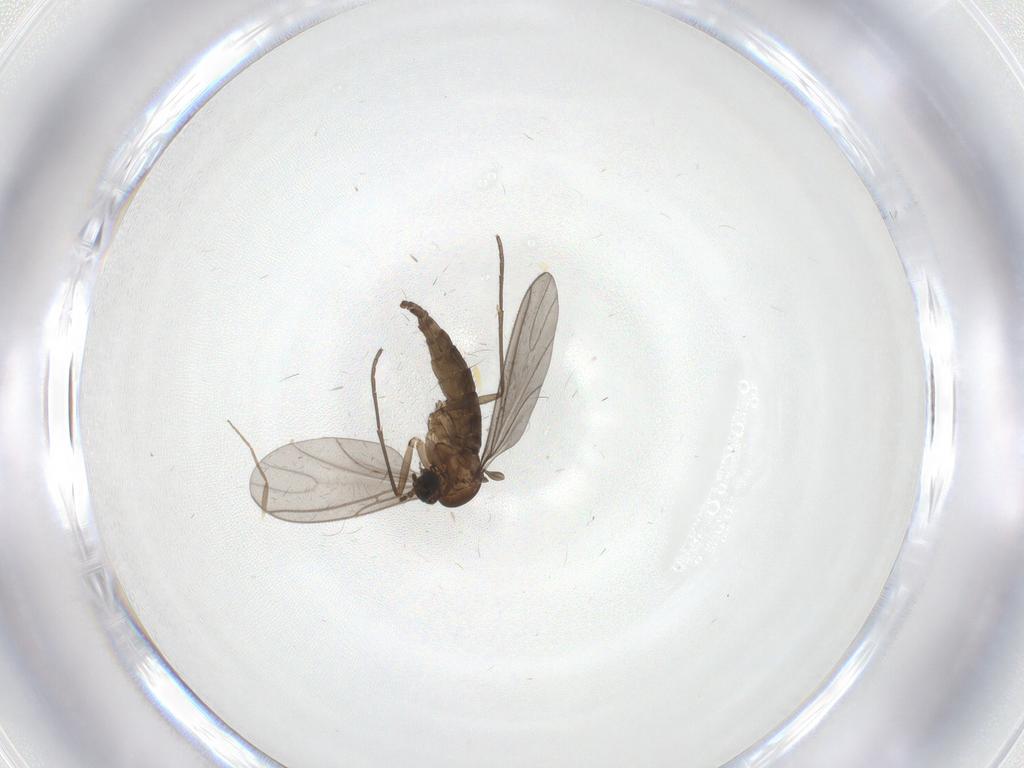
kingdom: Animalia
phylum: Arthropoda
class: Insecta
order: Diptera
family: Sciaridae
